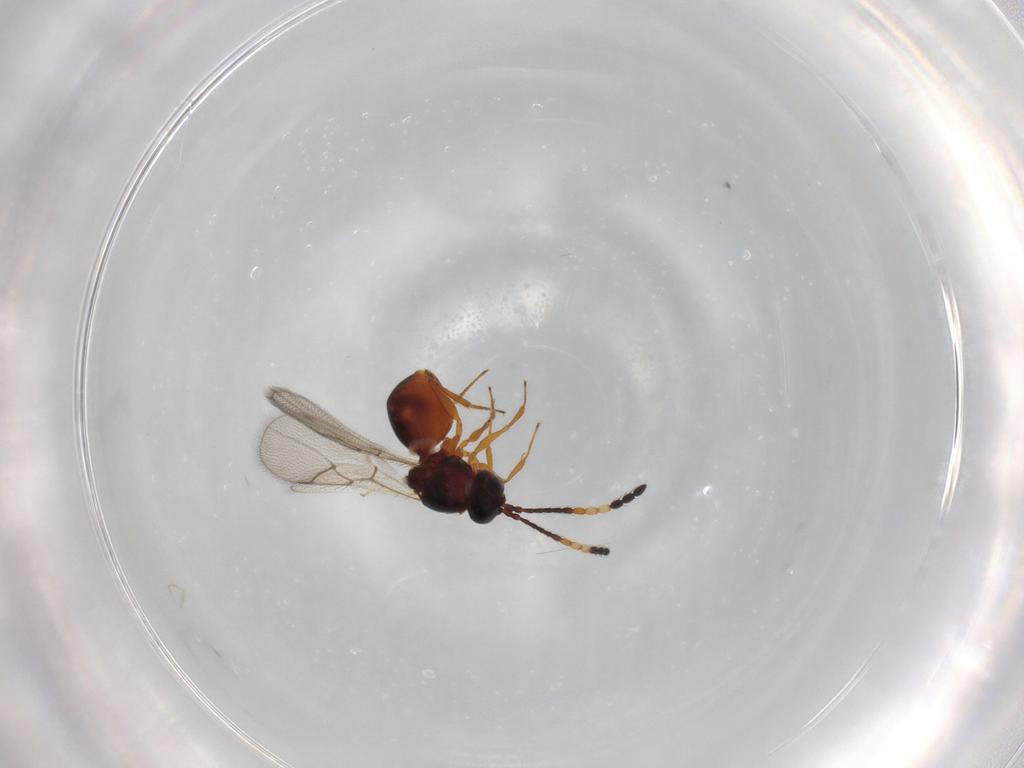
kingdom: Animalia
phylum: Arthropoda
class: Insecta
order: Hymenoptera
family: Figitidae
